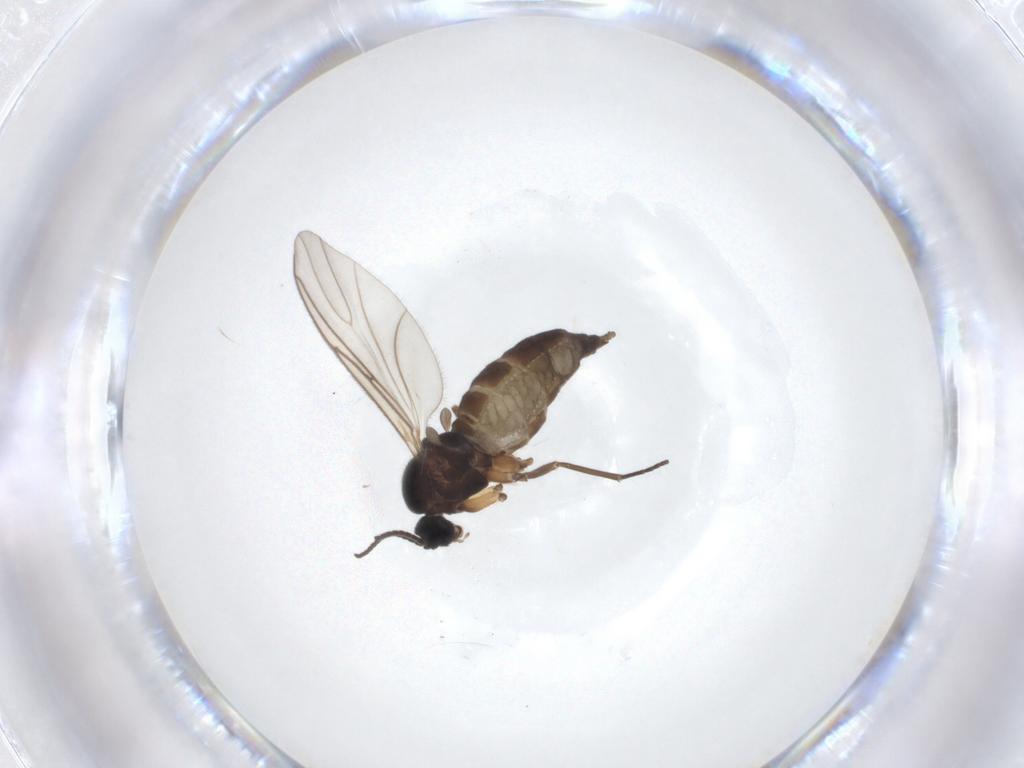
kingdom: Animalia
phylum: Arthropoda
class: Insecta
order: Diptera
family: Sciaridae
